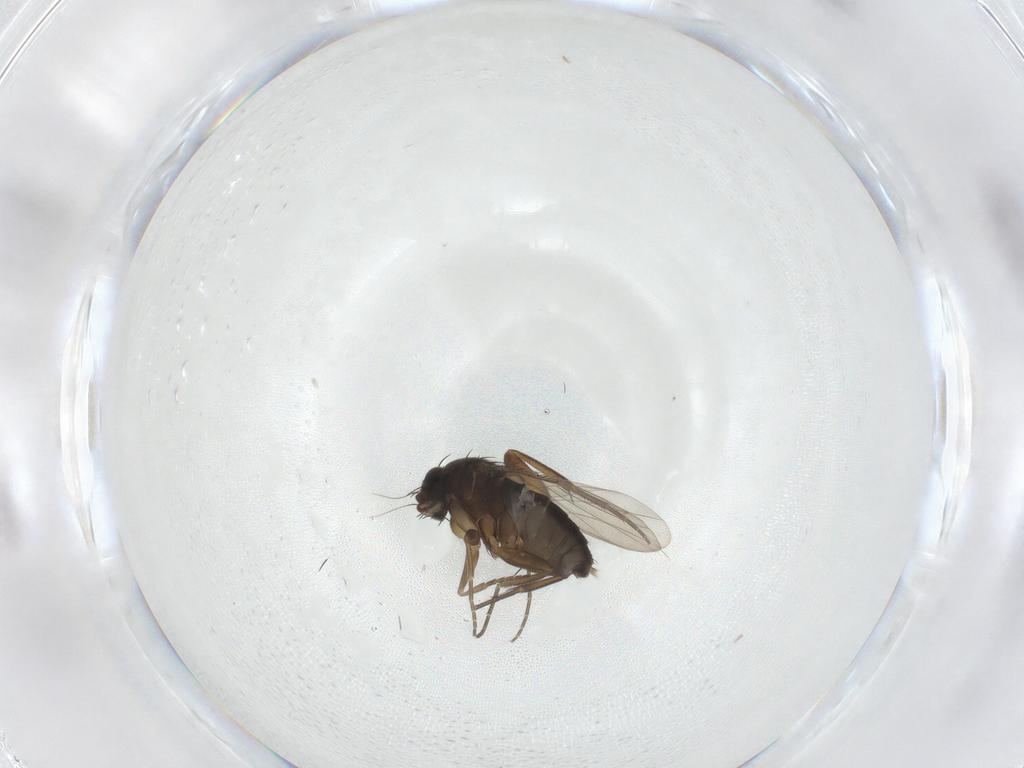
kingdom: Animalia
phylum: Arthropoda
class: Insecta
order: Diptera
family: Phoridae
